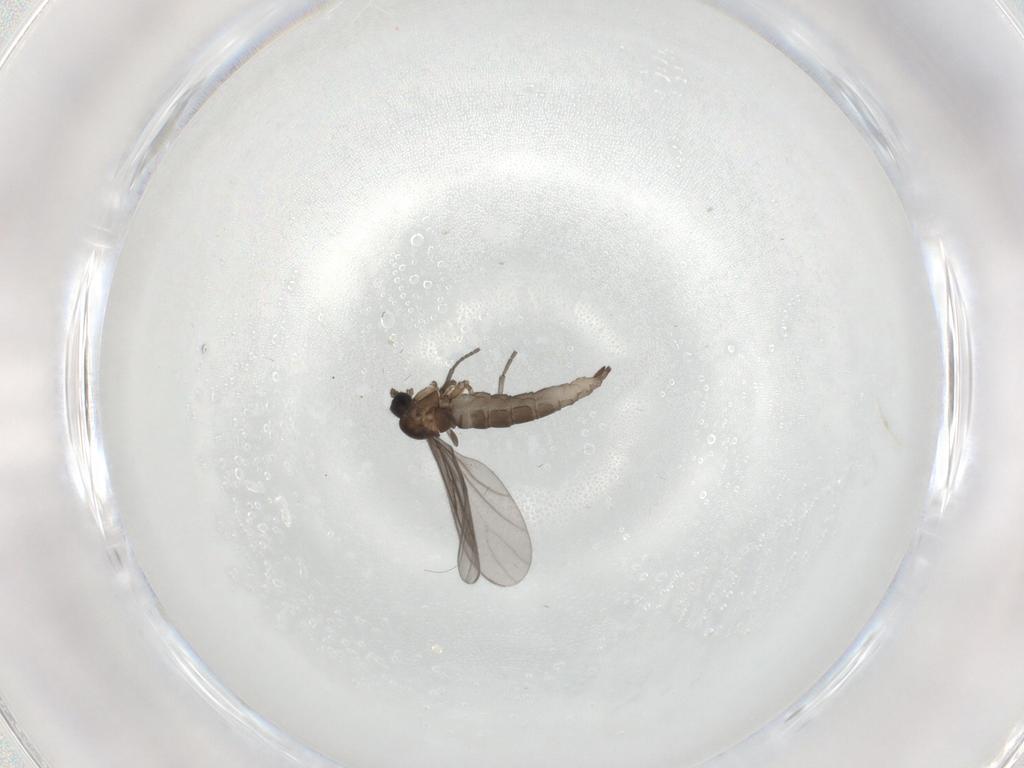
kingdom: Animalia
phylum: Arthropoda
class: Insecta
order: Diptera
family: Sciaridae
